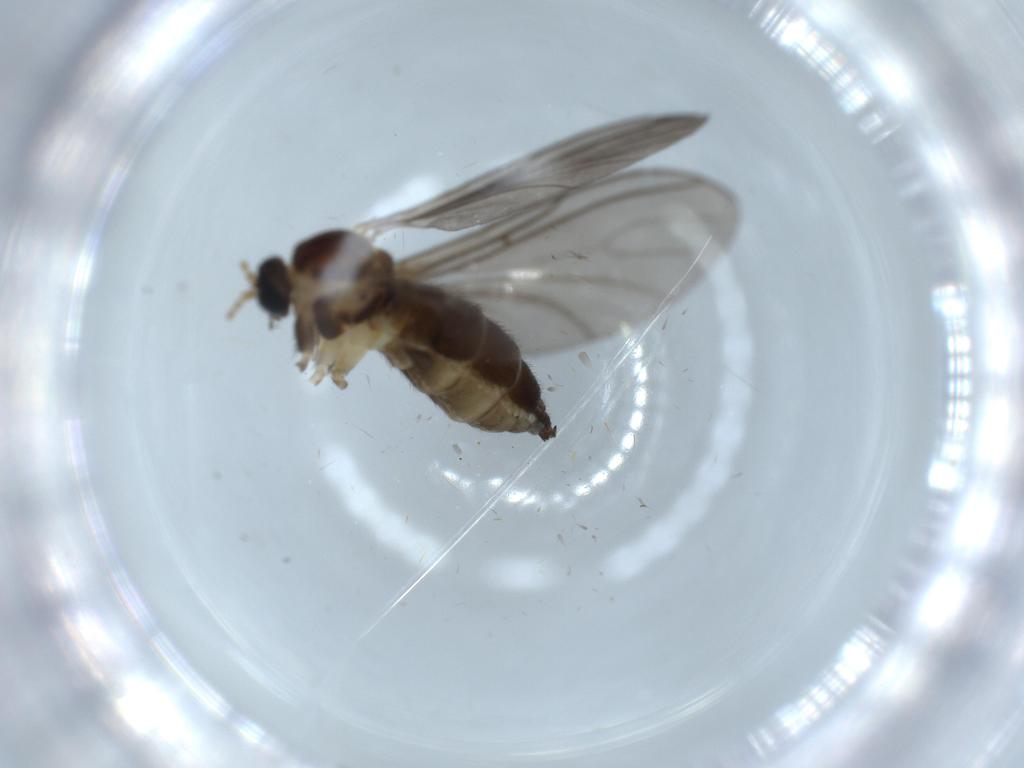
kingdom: Animalia
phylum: Arthropoda
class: Insecta
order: Diptera
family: Sciaridae
